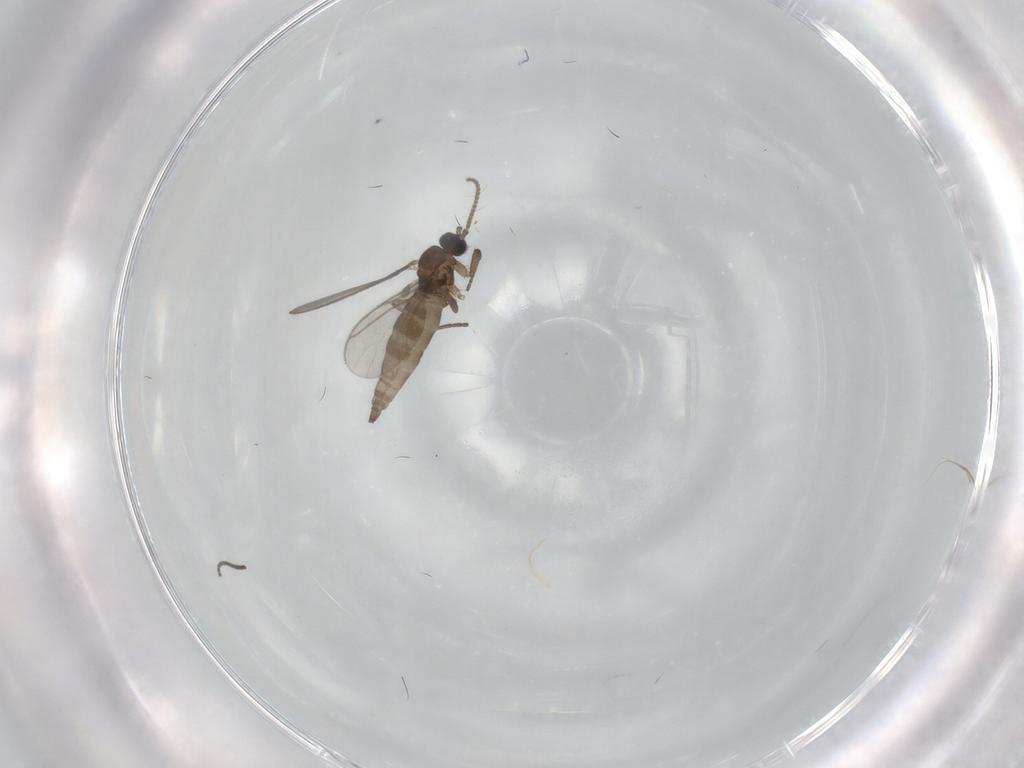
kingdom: Animalia
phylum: Arthropoda
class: Insecta
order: Diptera
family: Sciaridae
